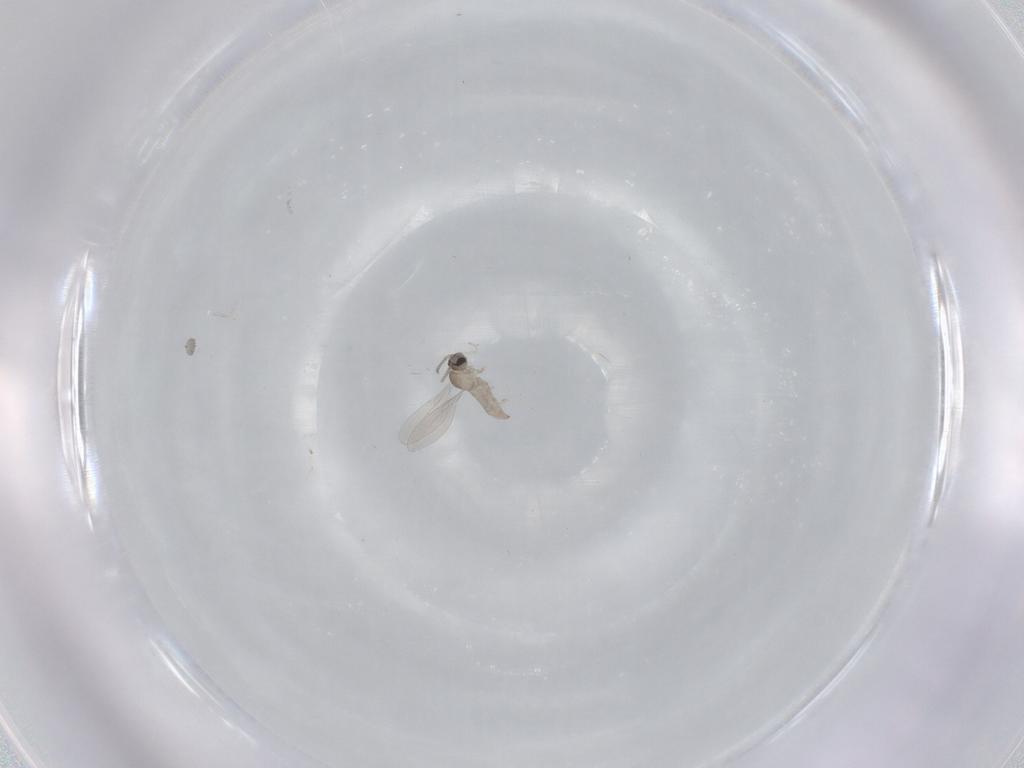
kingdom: Animalia
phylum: Arthropoda
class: Insecta
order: Diptera
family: Cecidomyiidae
